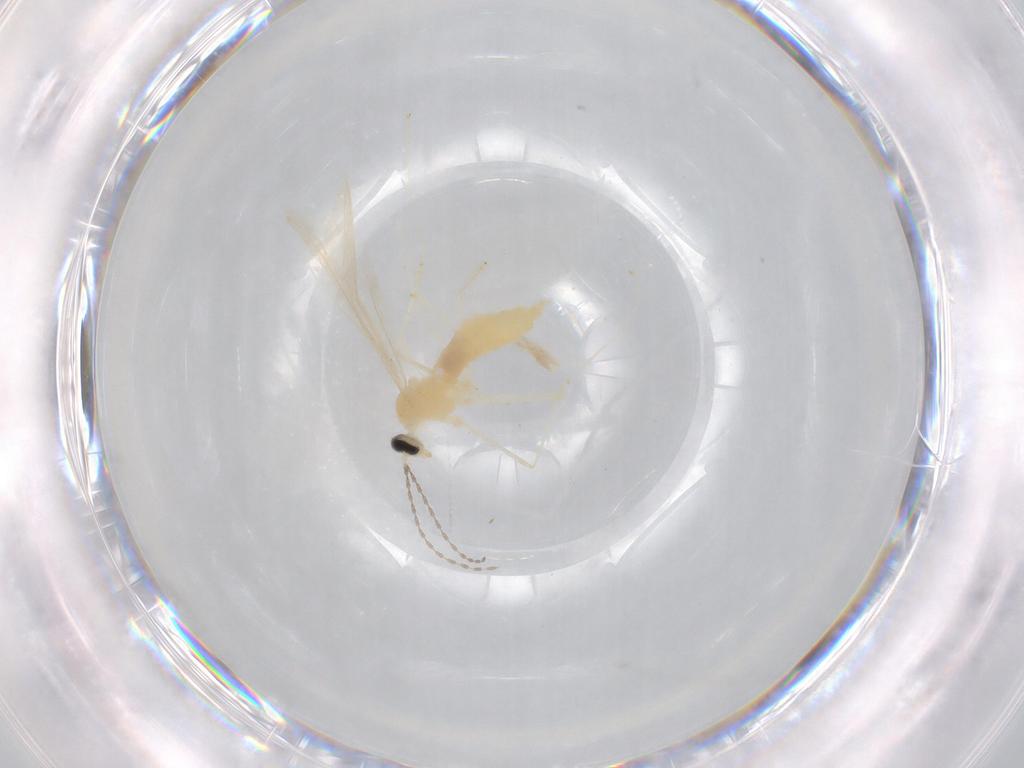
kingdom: Animalia
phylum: Arthropoda
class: Insecta
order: Diptera
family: Cecidomyiidae
